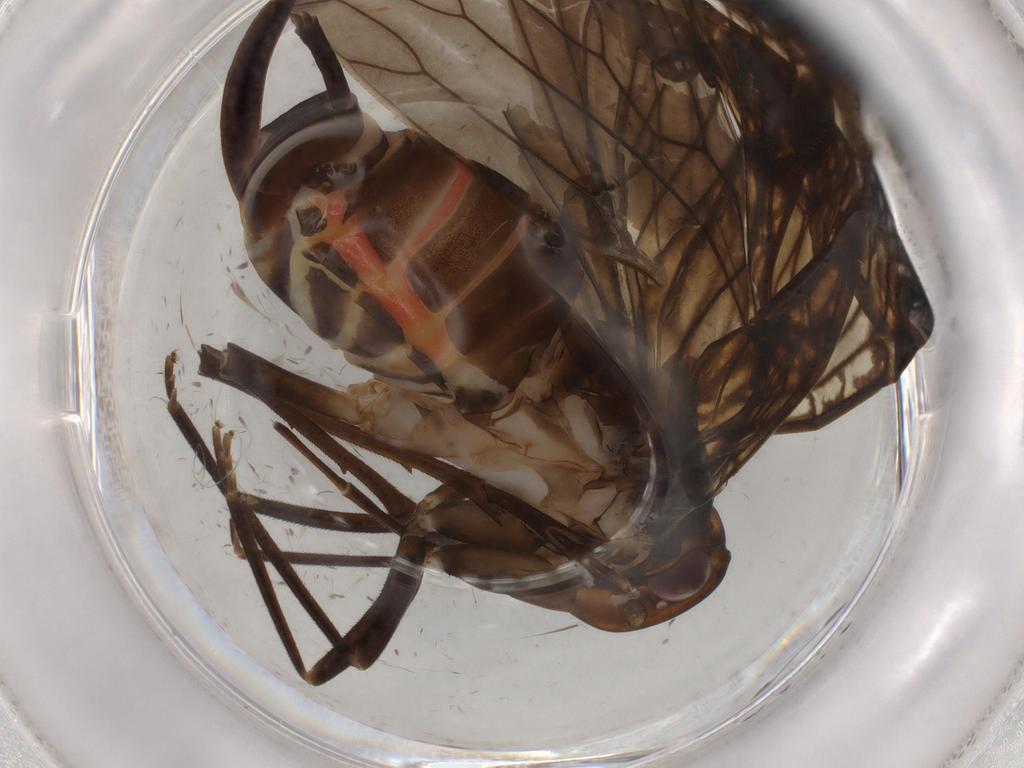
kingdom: Animalia
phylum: Arthropoda
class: Insecta
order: Hemiptera
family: Cixiidae
